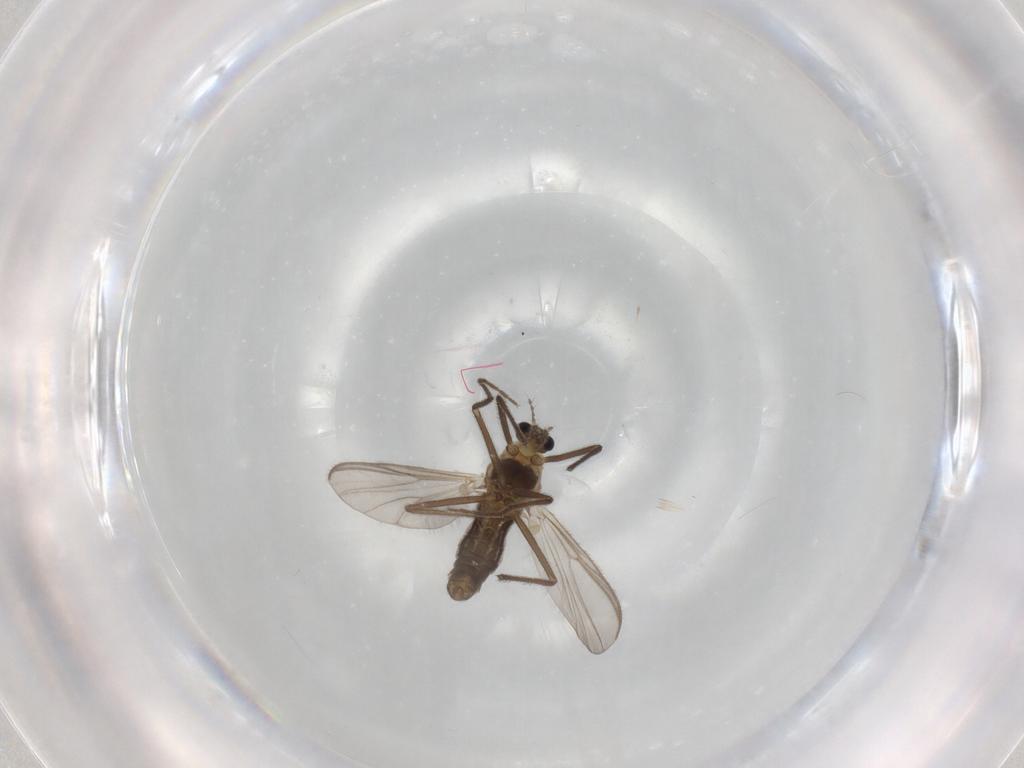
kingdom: Animalia
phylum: Arthropoda
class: Insecta
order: Diptera
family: Chironomidae
